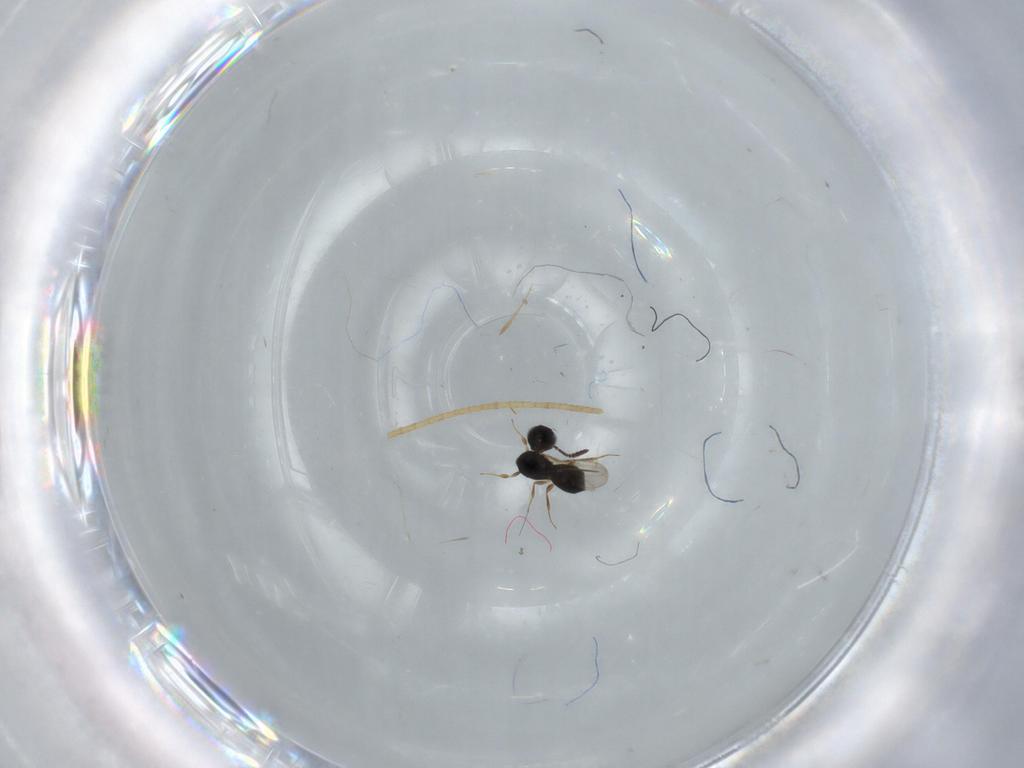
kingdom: Animalia
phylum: Arthropoda
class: Insecta
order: Hymenoptera
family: Scelionidae
